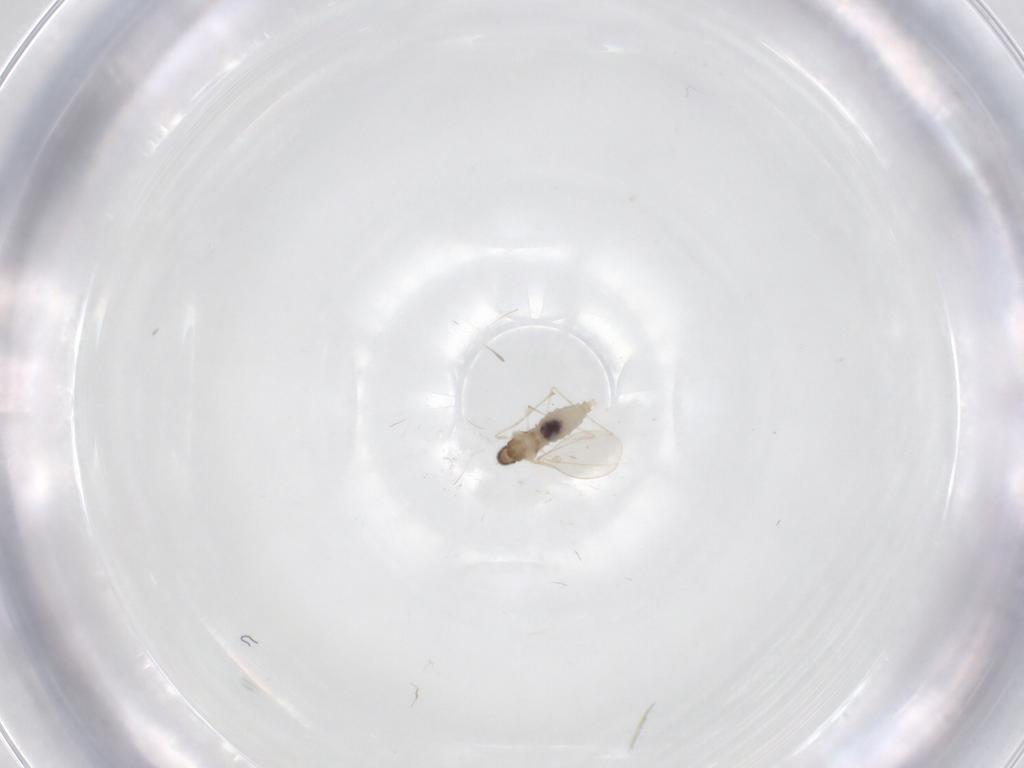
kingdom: Animalia
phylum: Arthropoda
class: Insecta
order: Diptera
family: Cecidomyiidae
